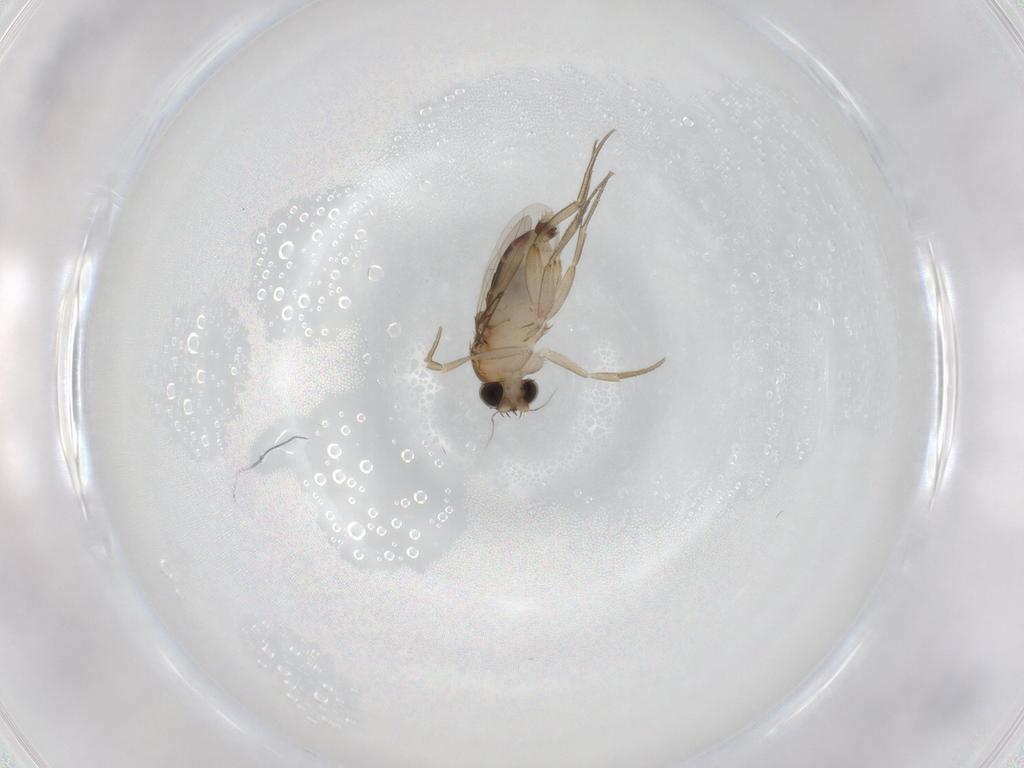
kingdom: Animalia
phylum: Arthropoda
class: Insecta
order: Diptera
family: Phoridae
